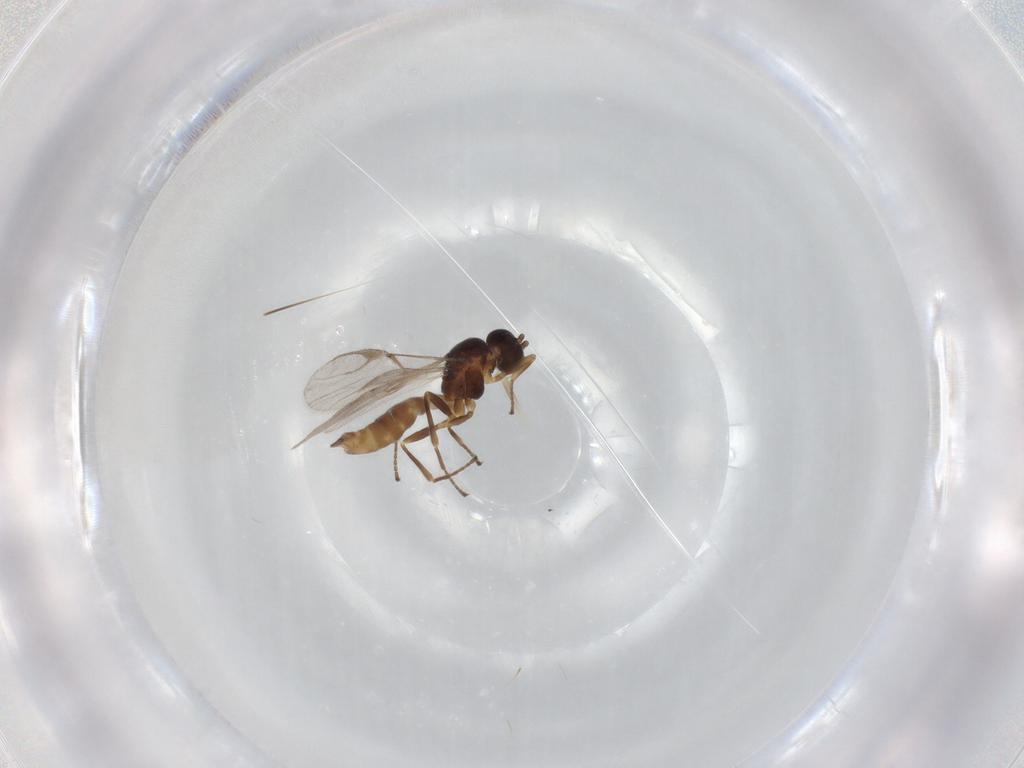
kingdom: Animalia
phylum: Arthropoda
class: Insecta
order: Hymenoptera
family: Braconidae
